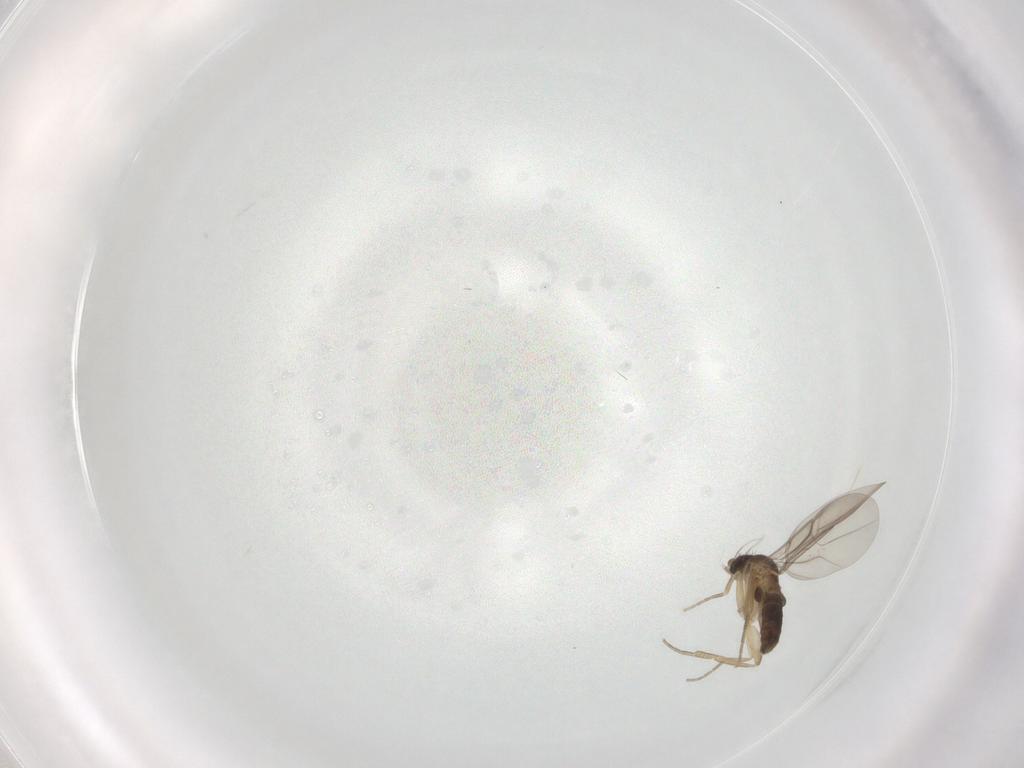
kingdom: Animalia
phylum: Arthropoda
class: Insecta
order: Diptera
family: Phoridae
